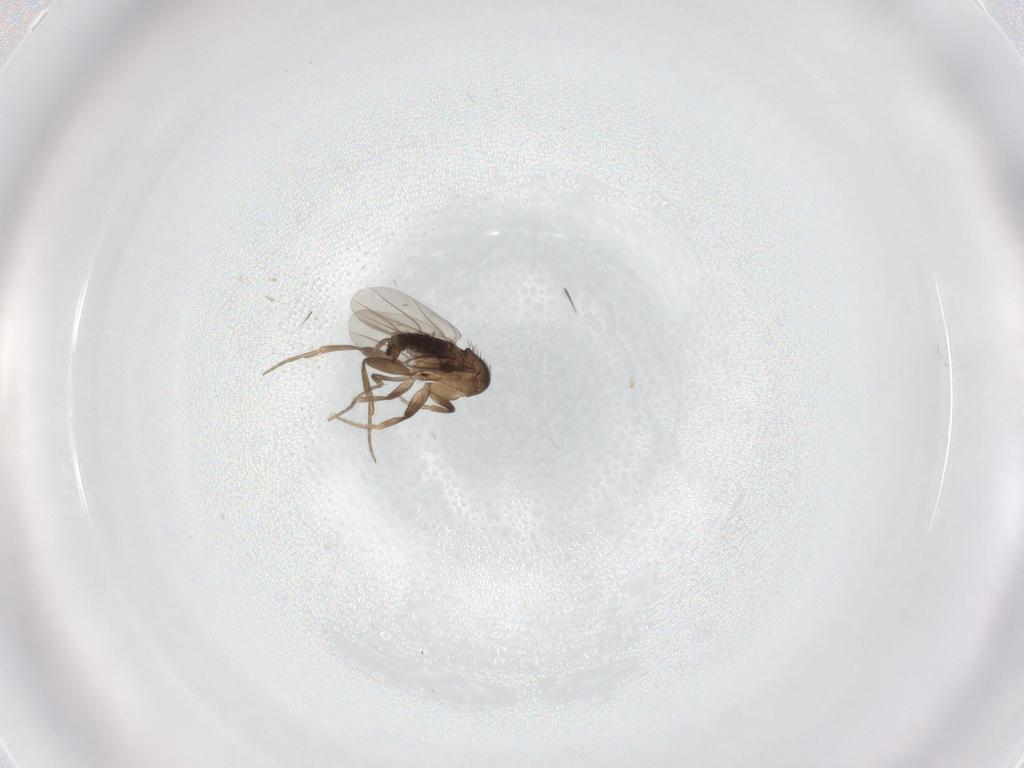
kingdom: Animalia
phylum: Arthropoda
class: Insecta
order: Diptera
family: Phoridae
